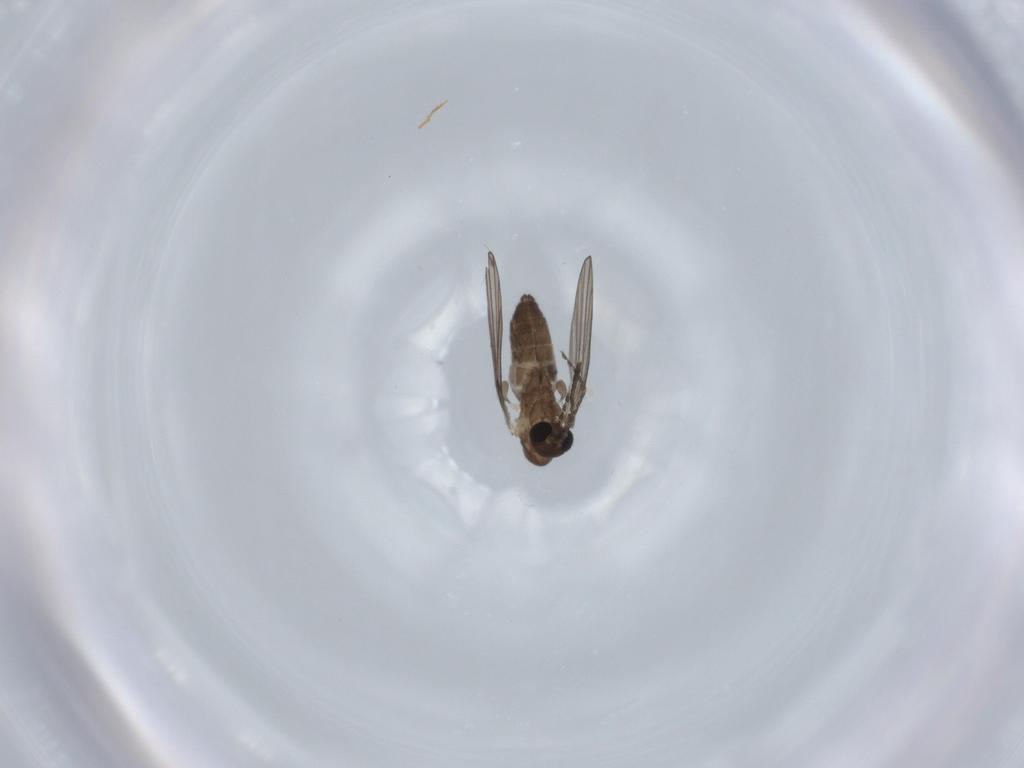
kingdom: Animalia
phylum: Arthropoda
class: Insecta
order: Diptera
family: Psychodidae
